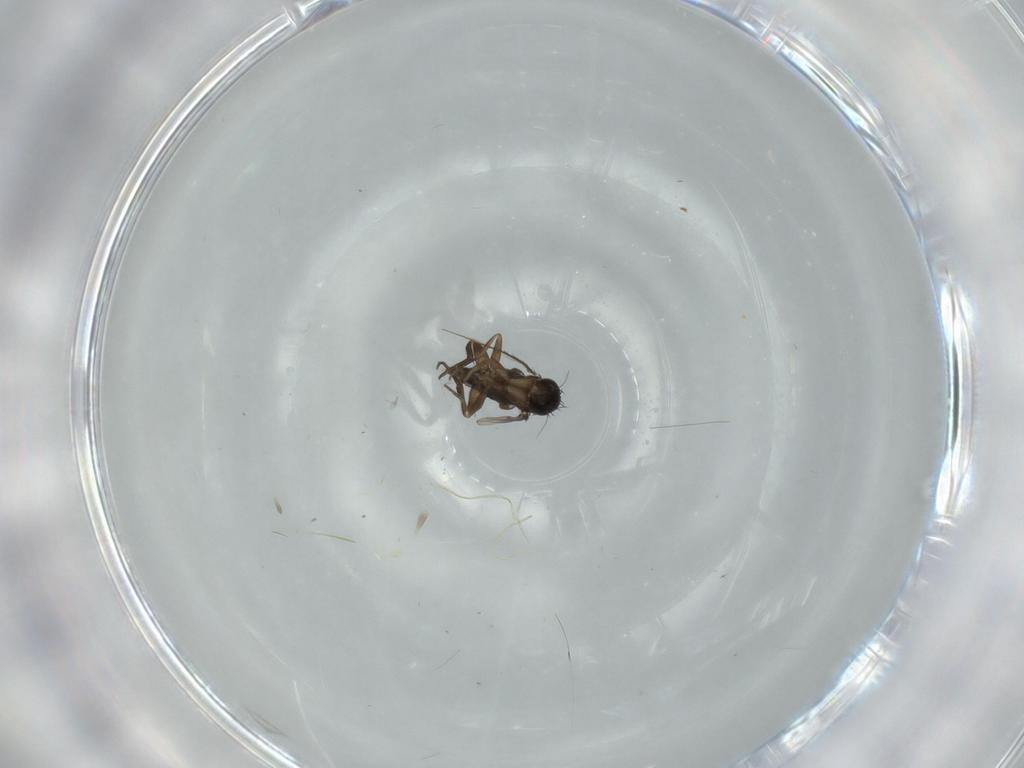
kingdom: Animalia
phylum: Arthropoda
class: Insecta
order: Diptera
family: Phoridae
